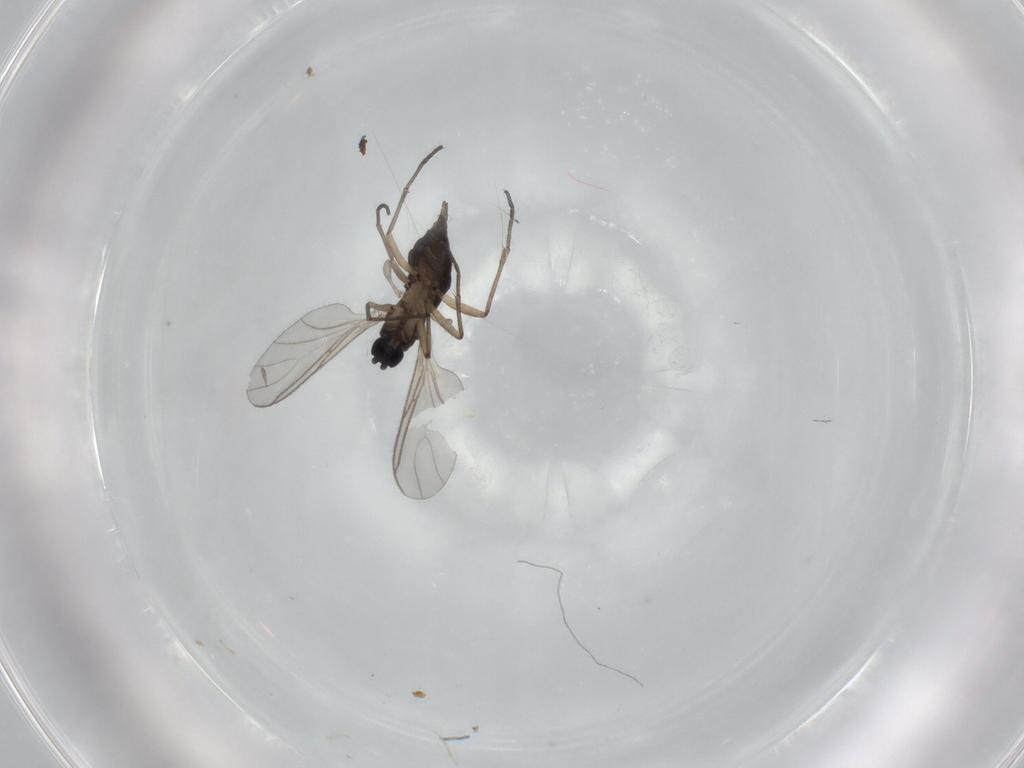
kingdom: Animalia
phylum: Arthropoda
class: Insecta
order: Diptera
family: Sciaridae
